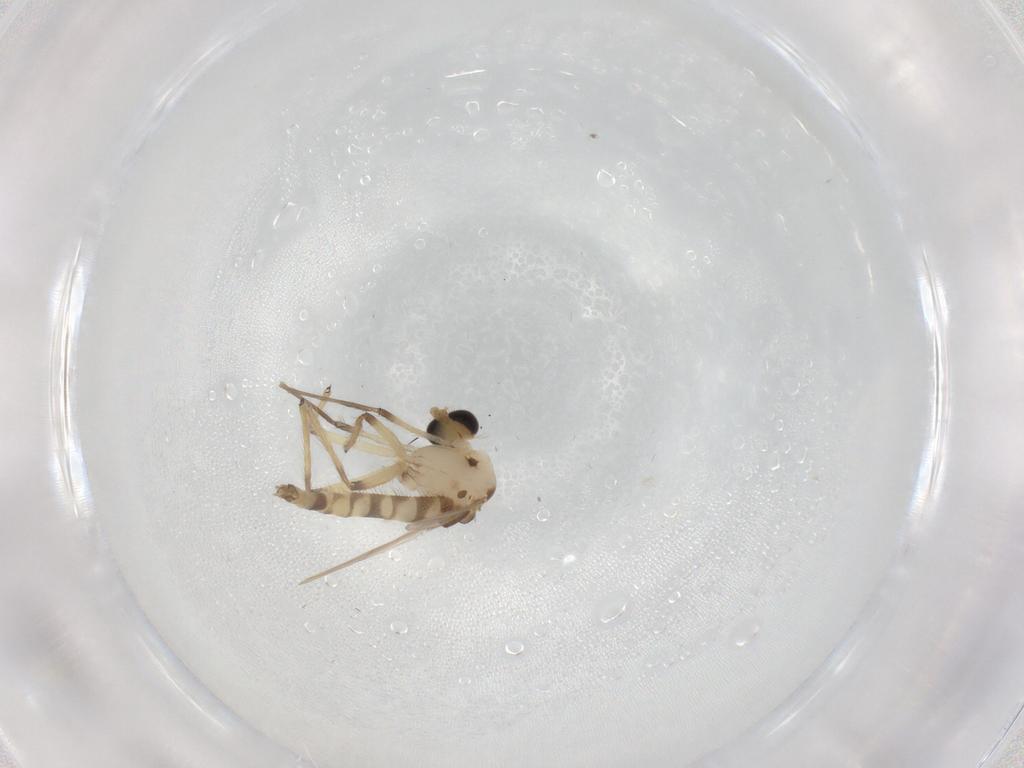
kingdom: Animalia
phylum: Arthropoda
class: Insecta
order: Diptera
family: Chironomidae
